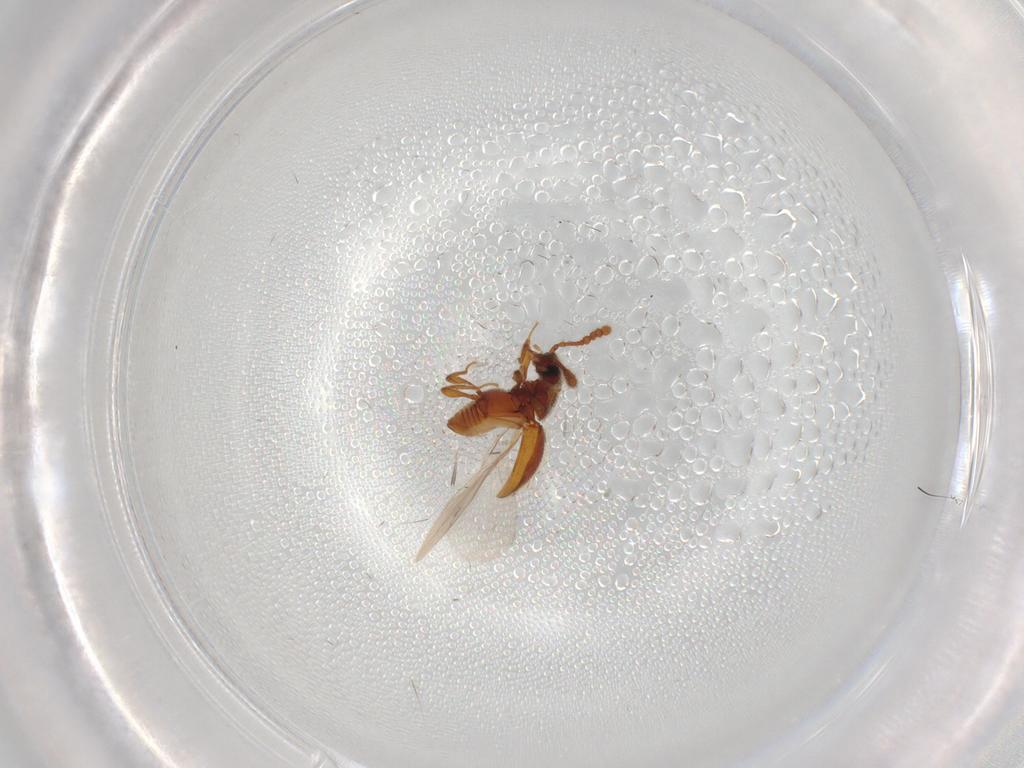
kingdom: Animalia
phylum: Arthropoda
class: Insecta
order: Coleoptera
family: Staphylinidae
